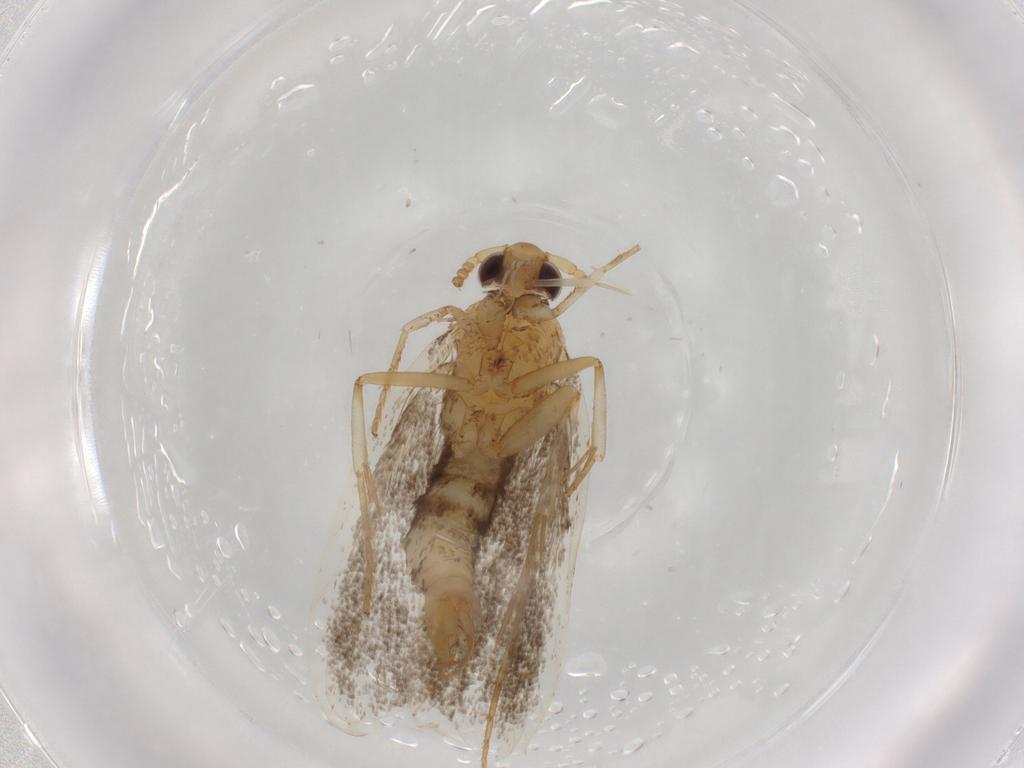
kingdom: Animalia
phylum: Arthropoda
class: Insecta
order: Lepidoptera
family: Lecithoceridae
